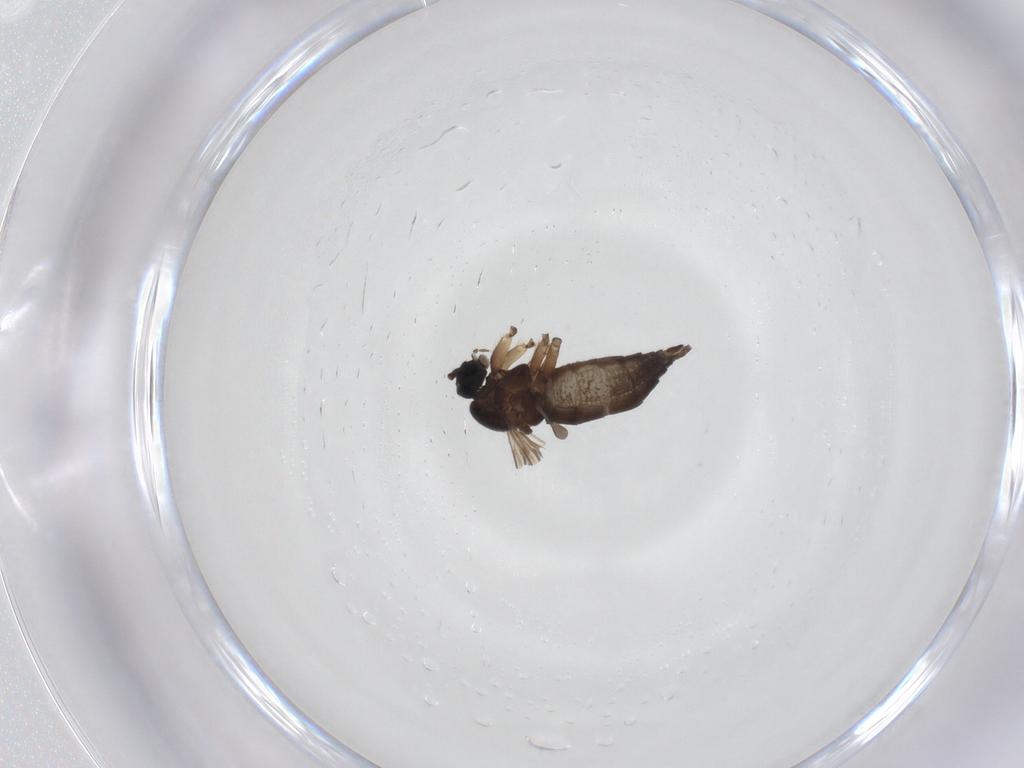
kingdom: Animalia
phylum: Arthropoda
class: Insecta
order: Diptera
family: Sciaridae
